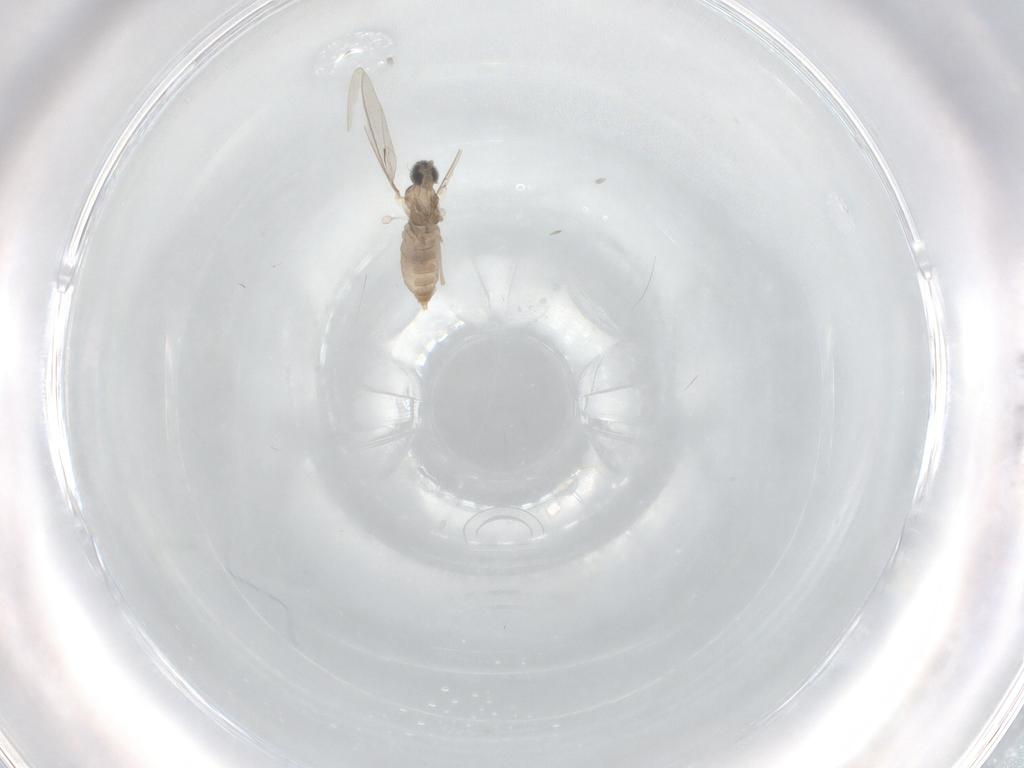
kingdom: Animalia
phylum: Arthropoda
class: Insecta
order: Diptera
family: Cecidomyiidae
